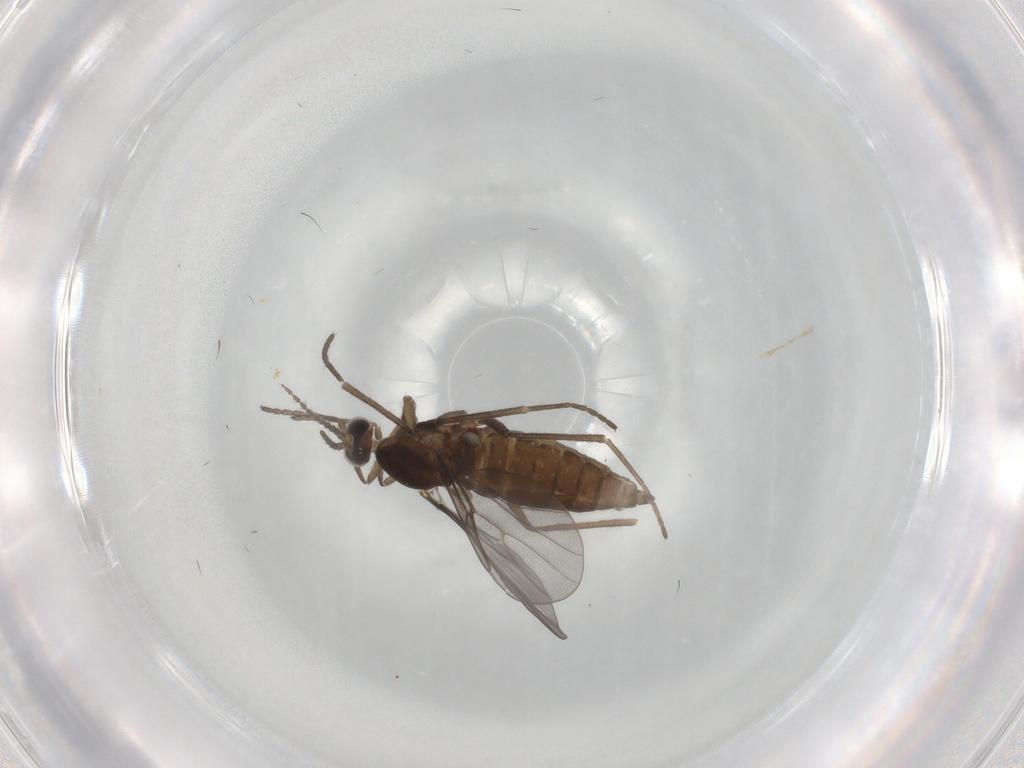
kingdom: Animalia
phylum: Arthropoda
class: Insecta
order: Diptera
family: Cecidomyiidae
